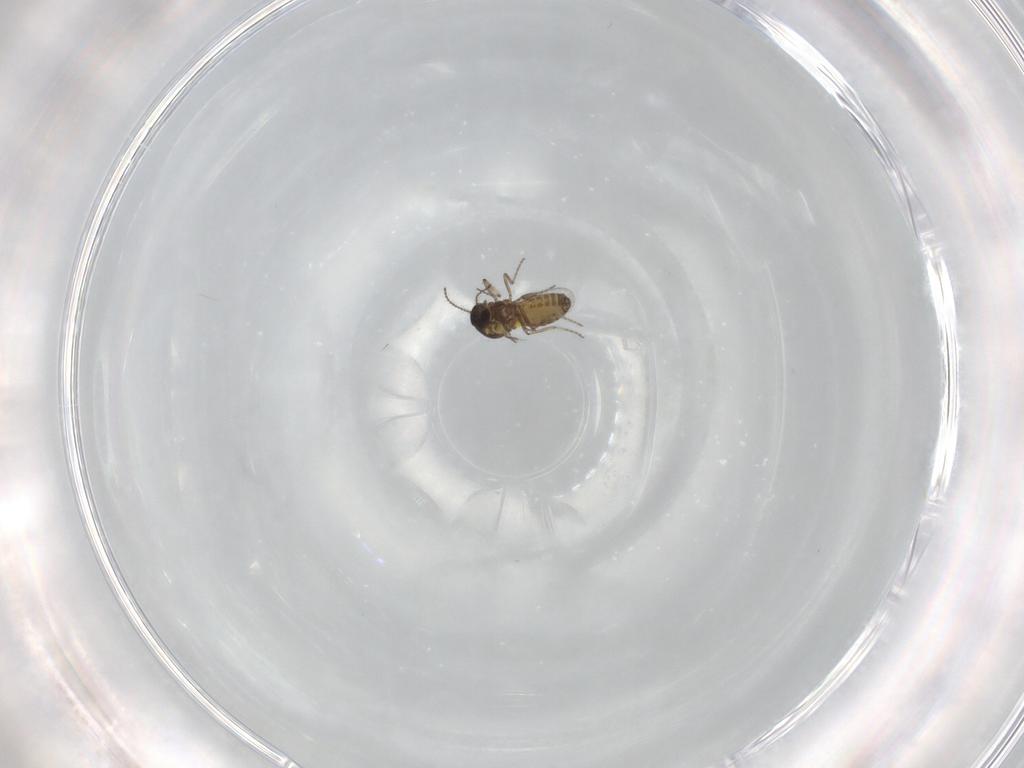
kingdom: Animalia
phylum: Arthropoda
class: Insecta
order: Diptera
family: Ceratopogonidae
